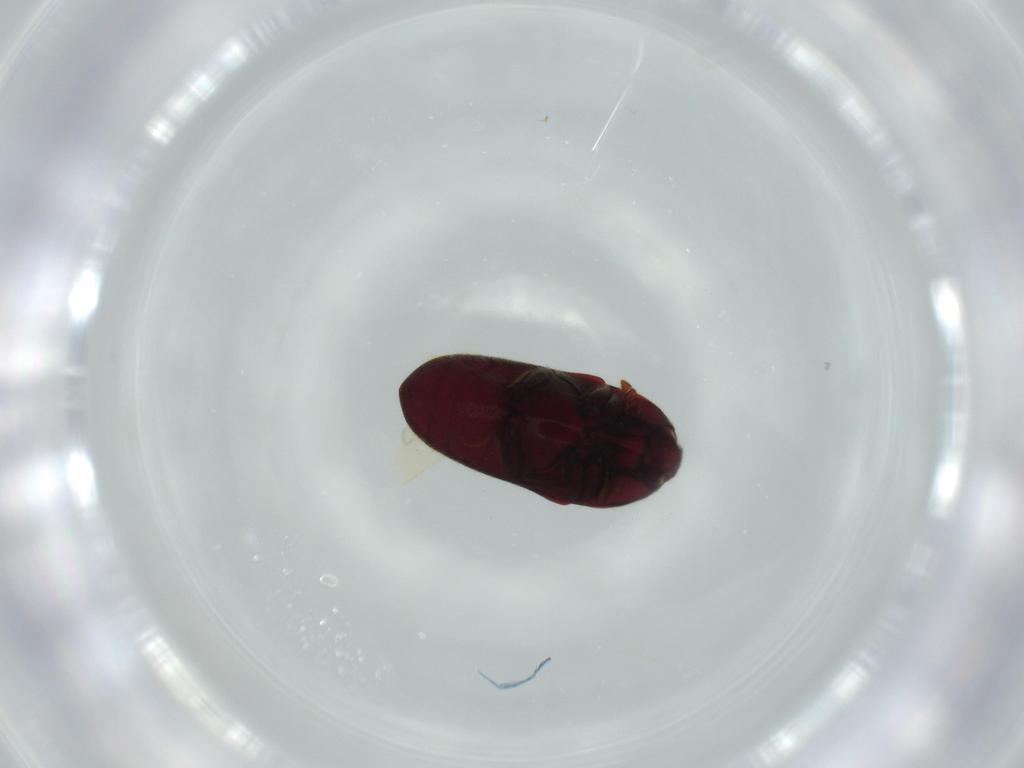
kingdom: Animalia
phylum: Arthropoda
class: Insecta
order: Coleoptera
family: Throscidae
